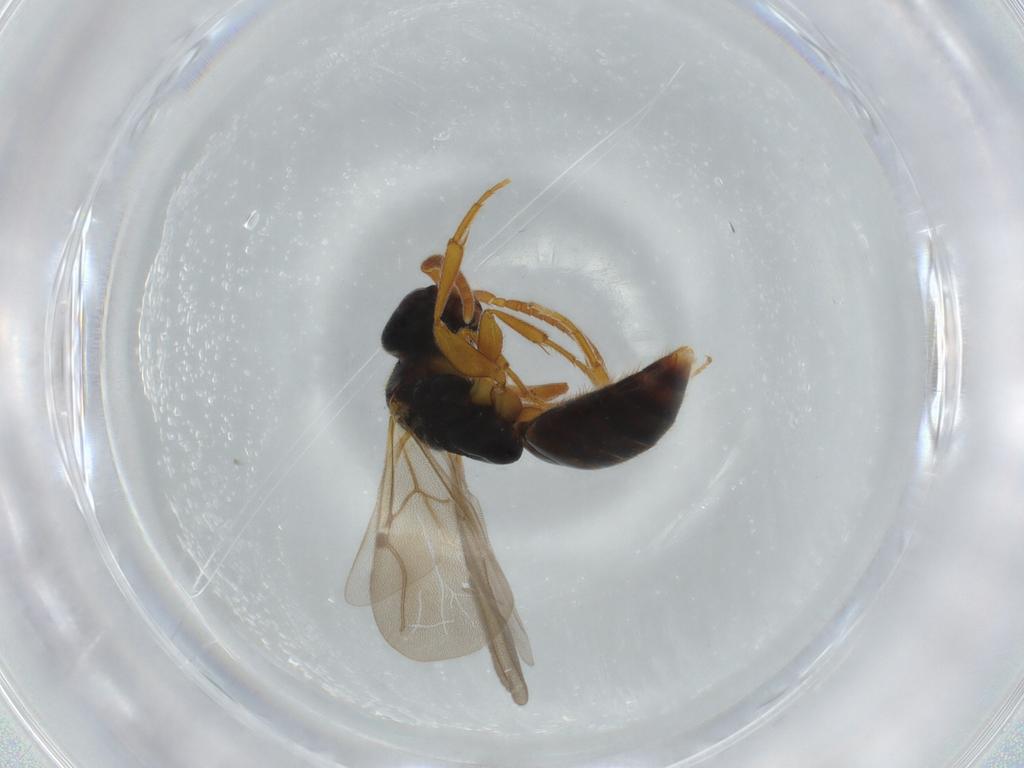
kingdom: Animalia
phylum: Arthropoda
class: Insecta
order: Hymenoptera
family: Bethylidae
